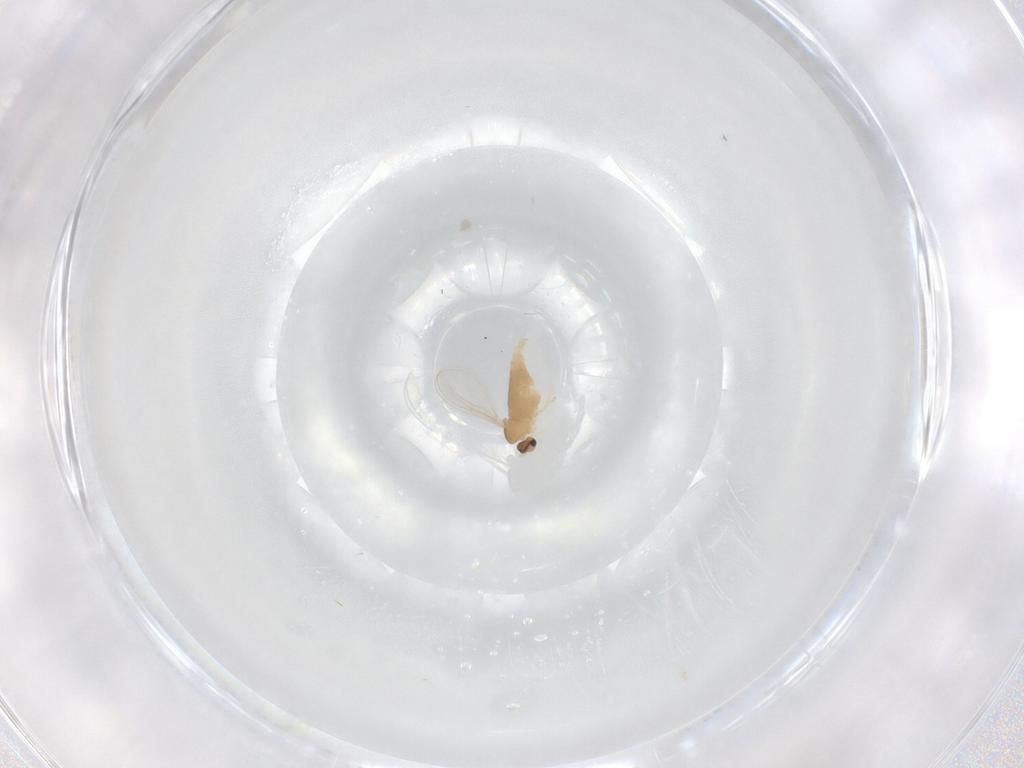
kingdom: Animalia
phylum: Arthropoda
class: Insecta
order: Diptera
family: Cecidomyiidae
